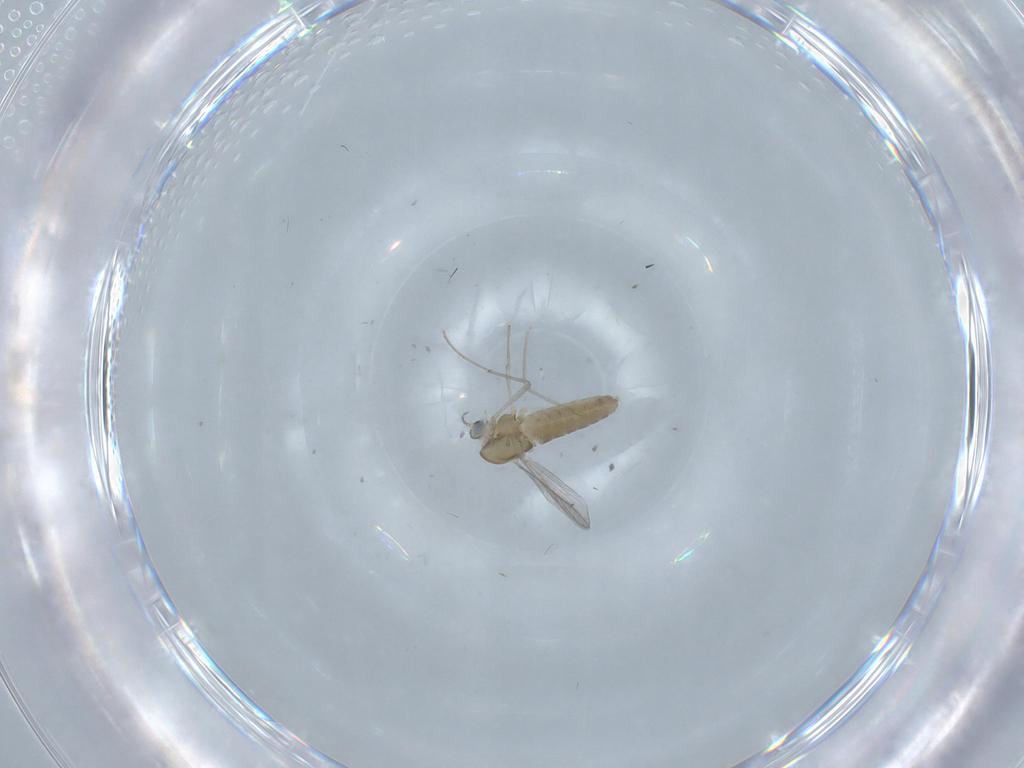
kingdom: Animalia
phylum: Arthropoda
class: Insecta
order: Diptera
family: Chironomidae
